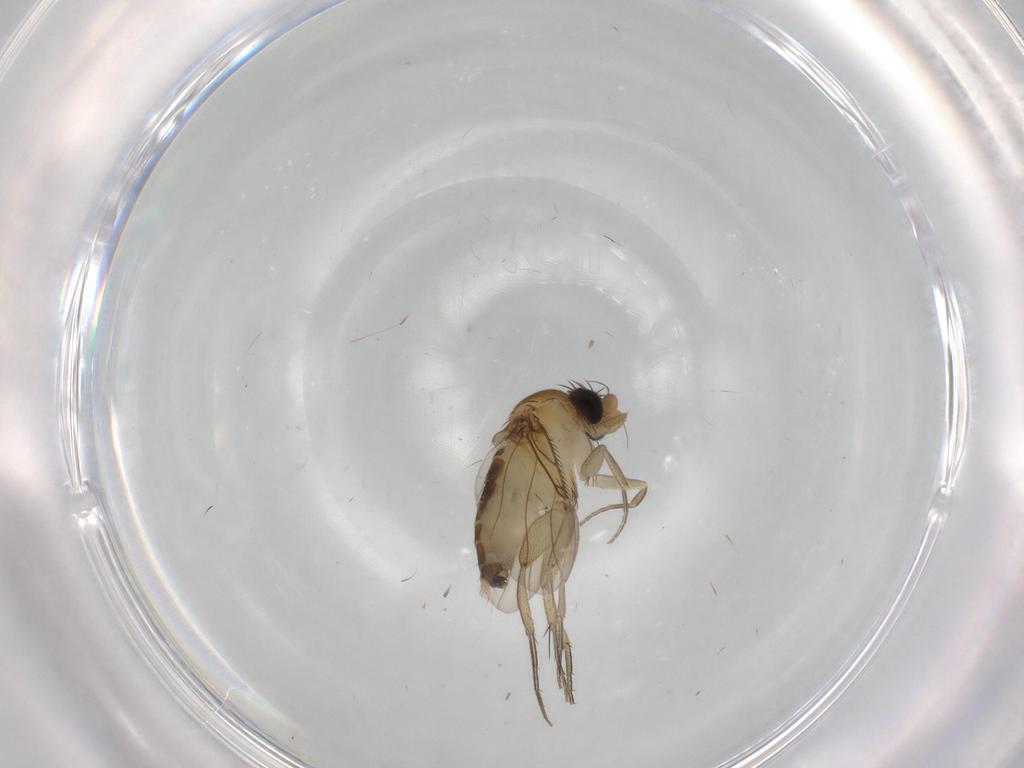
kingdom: Animalia
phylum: Arthropoda
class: Insecta
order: Diptera
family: Phoridae
